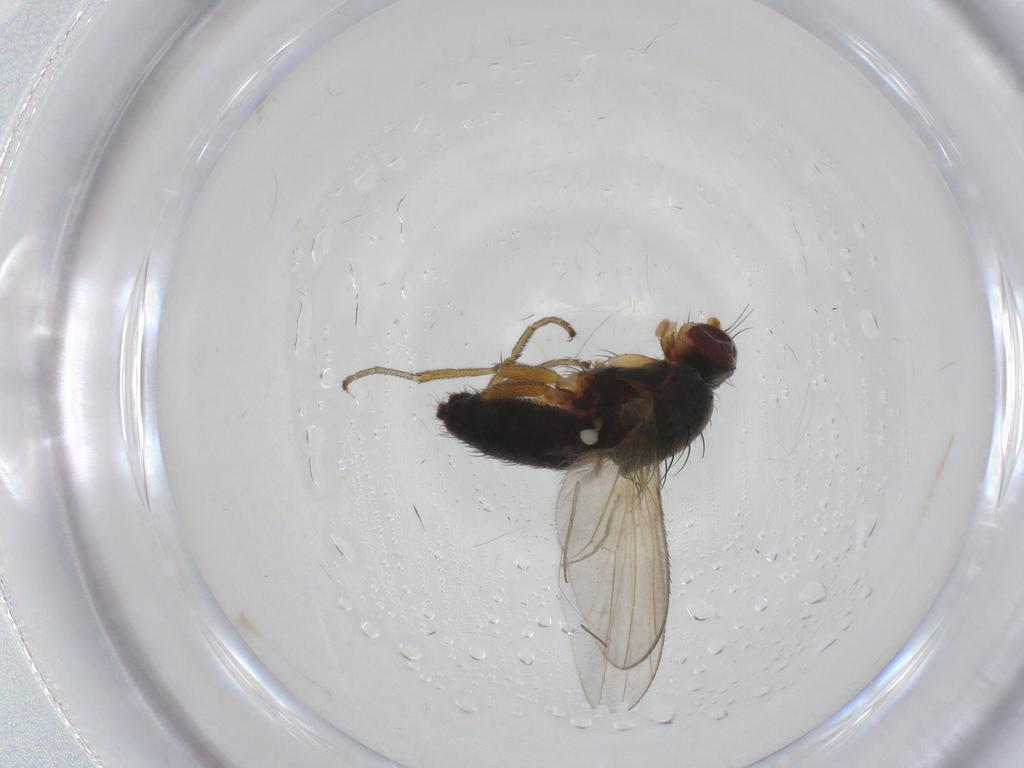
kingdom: Animalia
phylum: Arthropoda
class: Insecta
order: Diptera
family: Heleomyzidae
